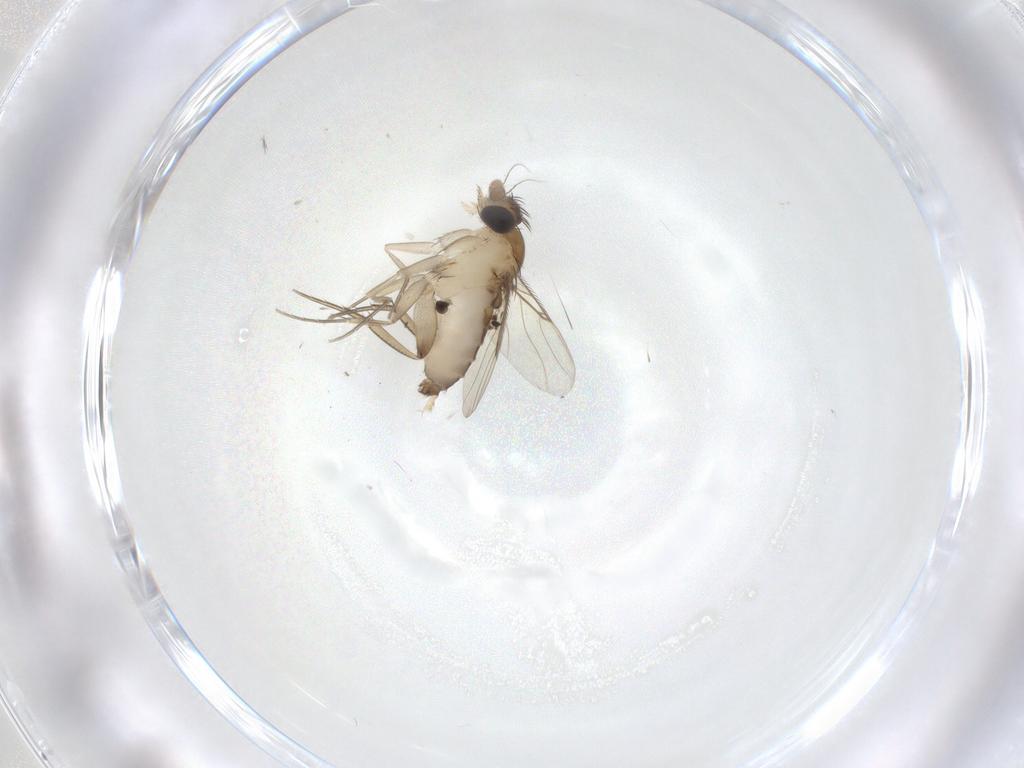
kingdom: Animalia
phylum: Arthropoda
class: Insecta
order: Diptera
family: Phoridae
